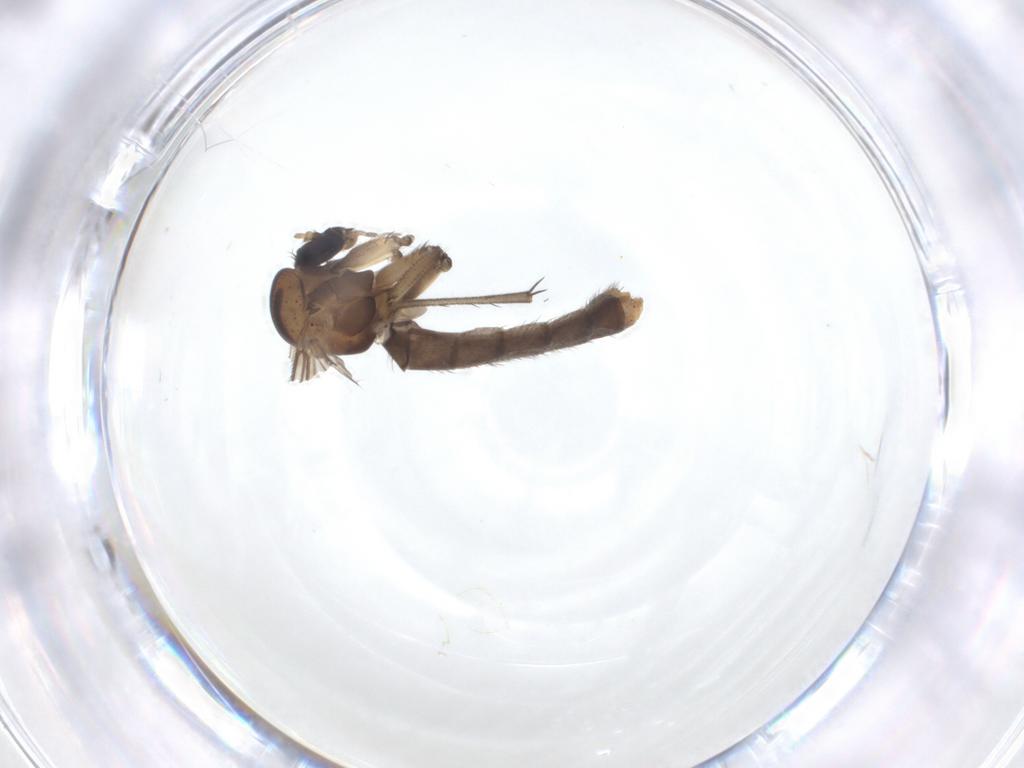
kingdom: Animalia
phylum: Arthropoda
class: Insecta
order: Diptera
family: Mycetophilidae
